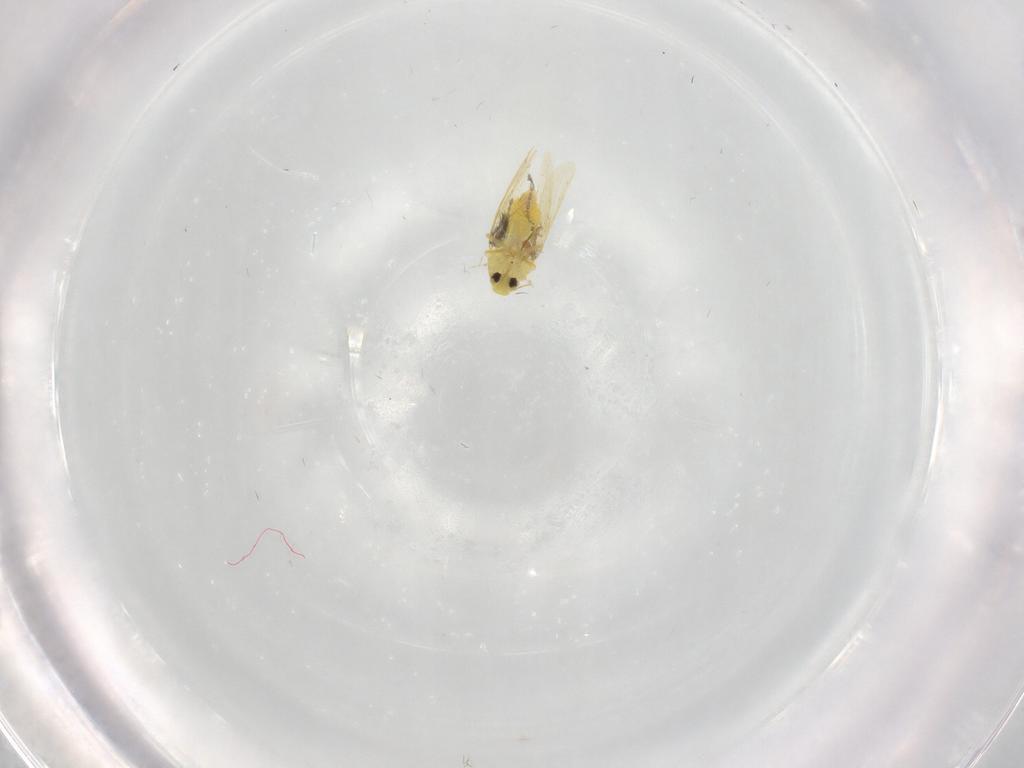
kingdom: Animalia
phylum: Arthropoda
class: Insecta
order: Hemiptera
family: Aleyrodidae
